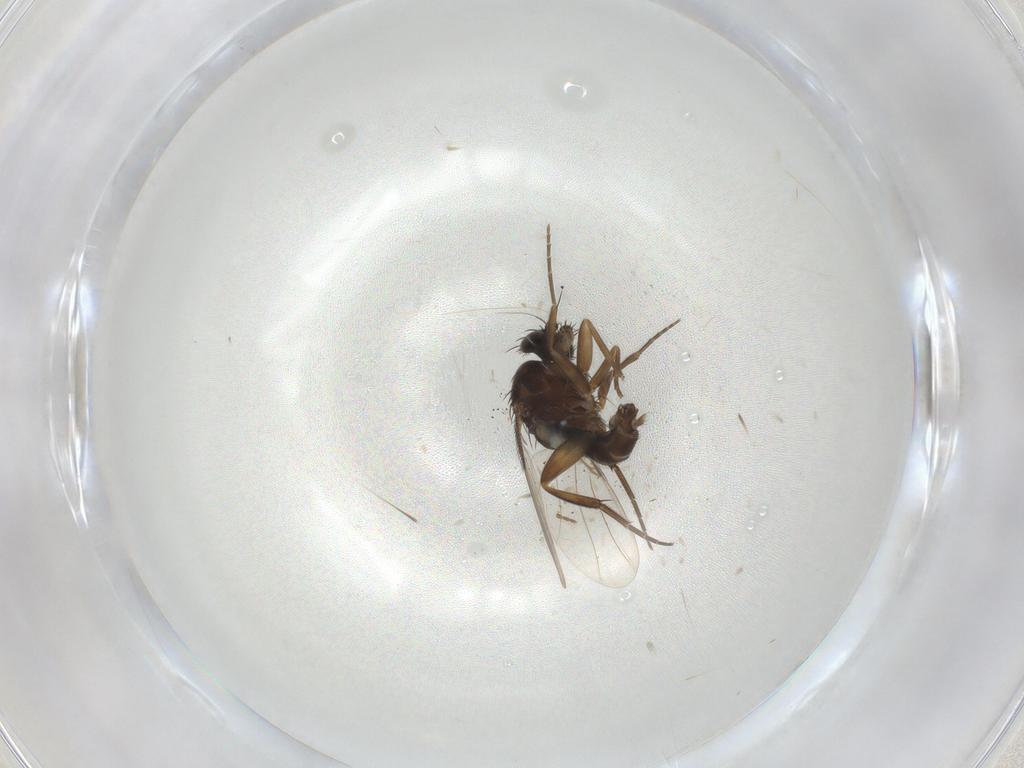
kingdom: Animalia
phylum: Arthropoda
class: Insecta
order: Diptera
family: Phoridae
